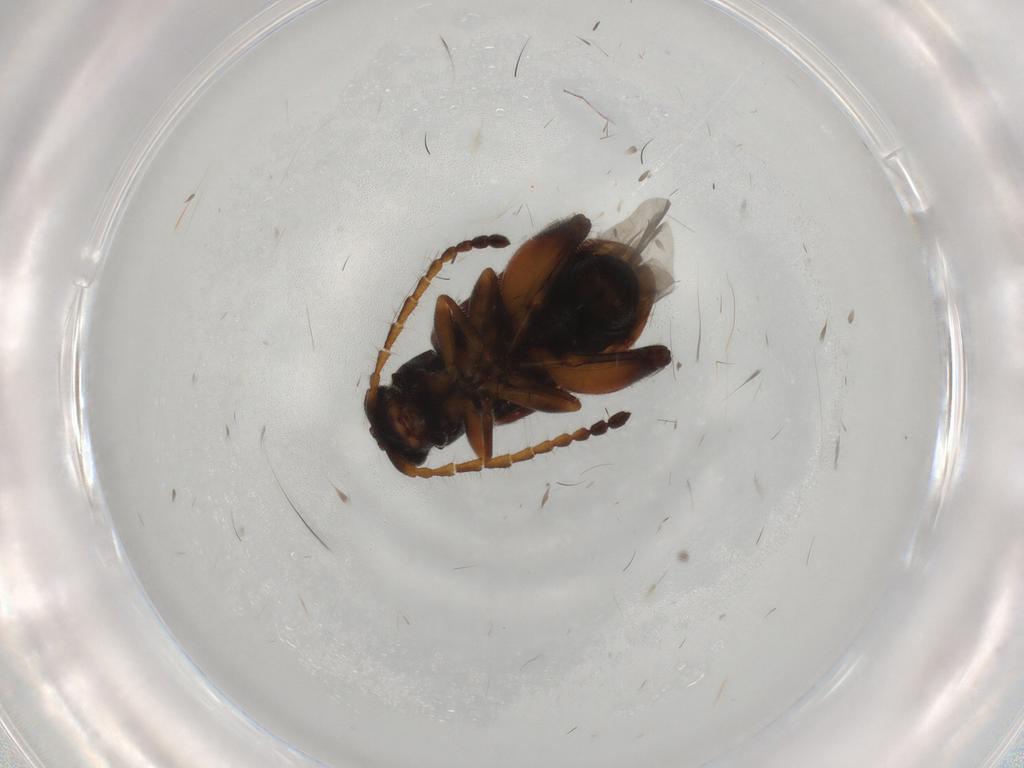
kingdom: Animalia
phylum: Arthropoda
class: Insecta
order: Coleoptera
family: Chrysomelidae
